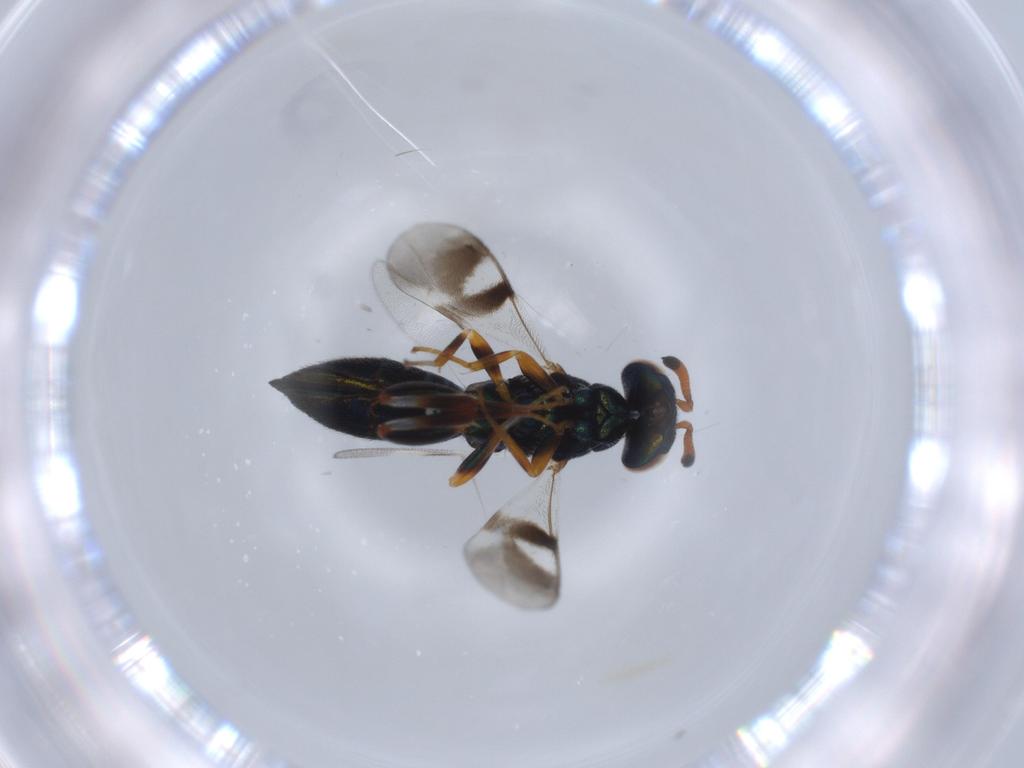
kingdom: Animalia
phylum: Arthropoda
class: Insecta
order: Hymenoptera
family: Cleonyminae
